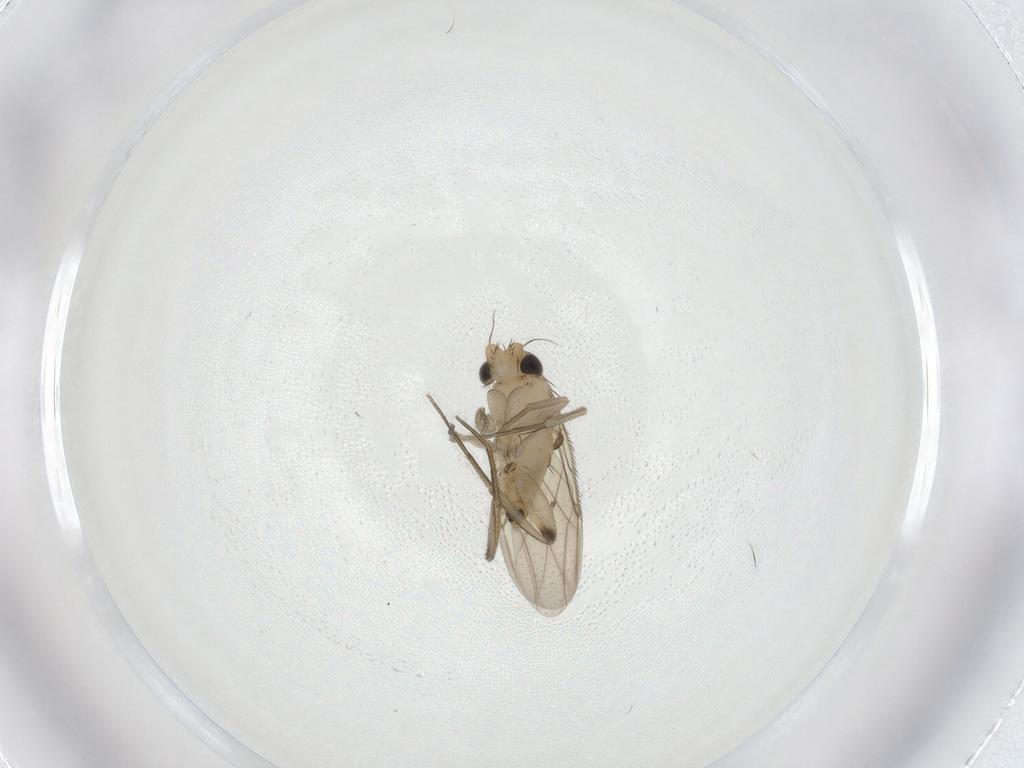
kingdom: Animalia
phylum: Arthropoda
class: Insecta
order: Diptera
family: Phoridae
